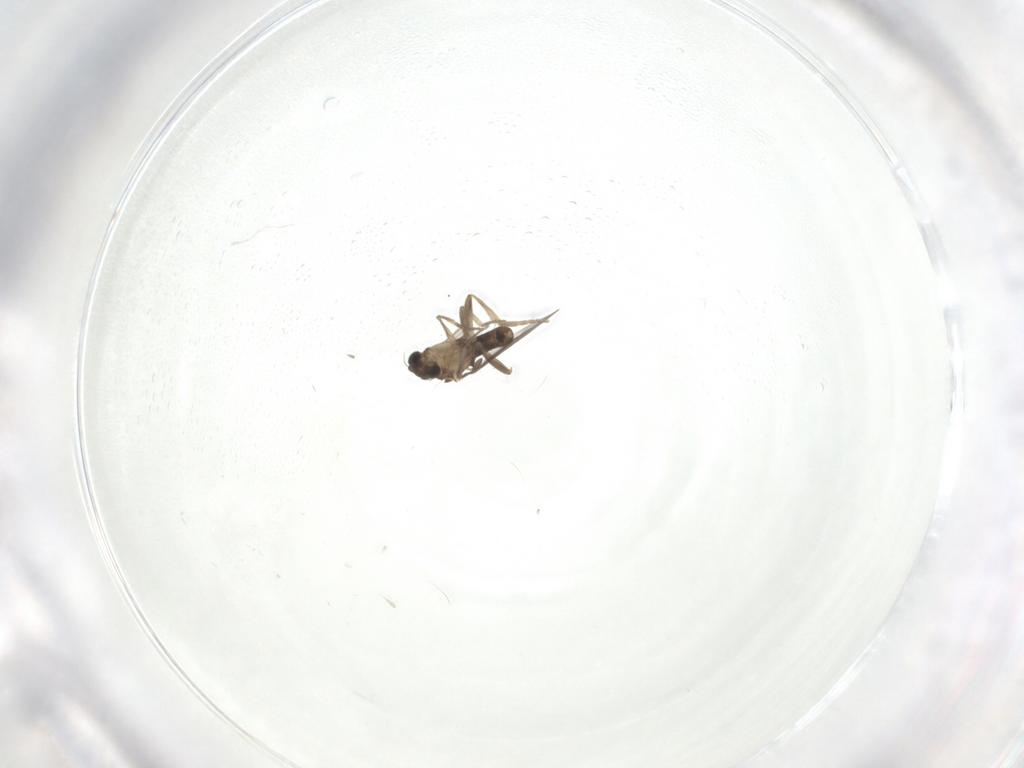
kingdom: Animalia
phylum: Arthropoda
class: Insecta
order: Diptera
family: Phoridae
